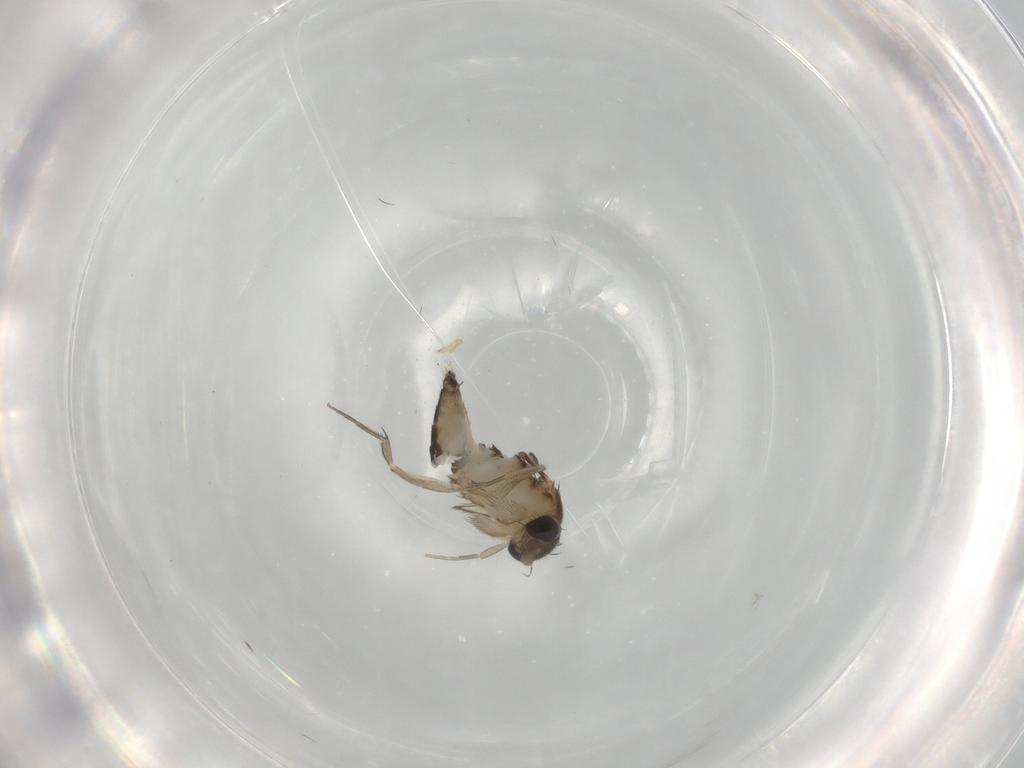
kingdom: Animalia
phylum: Arthropoda
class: Insecta
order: Diptera
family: Phoridae
